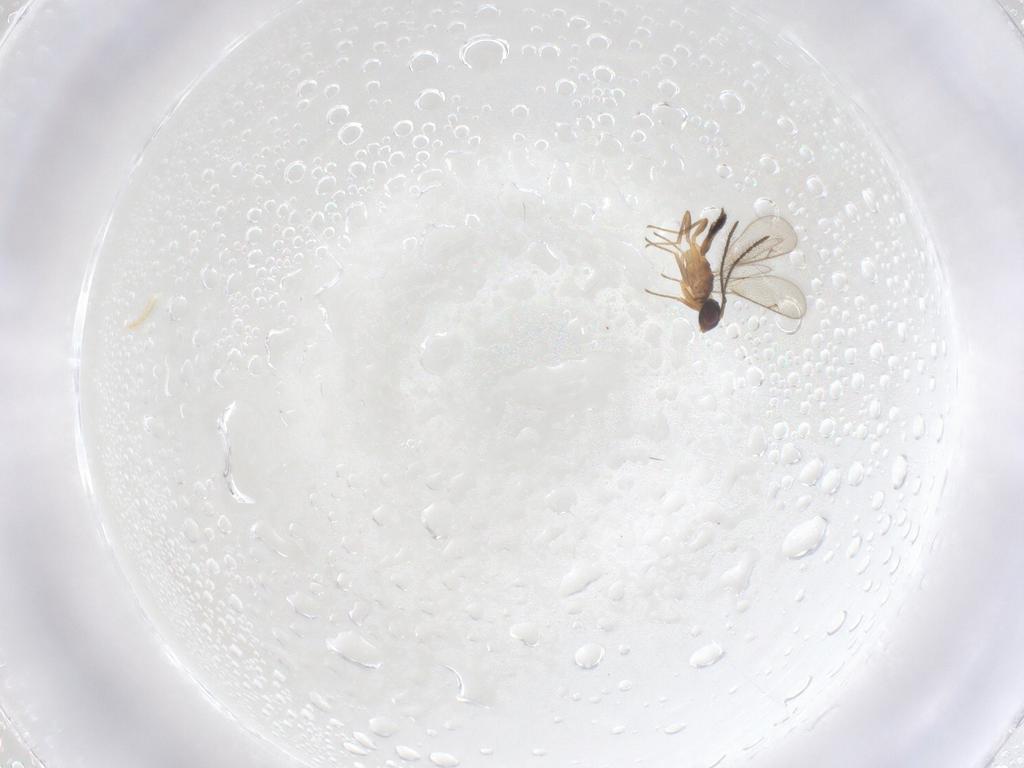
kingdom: Animalia
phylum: Arthropoda
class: Insecta
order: Hymenoptera
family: Eupelmidae
